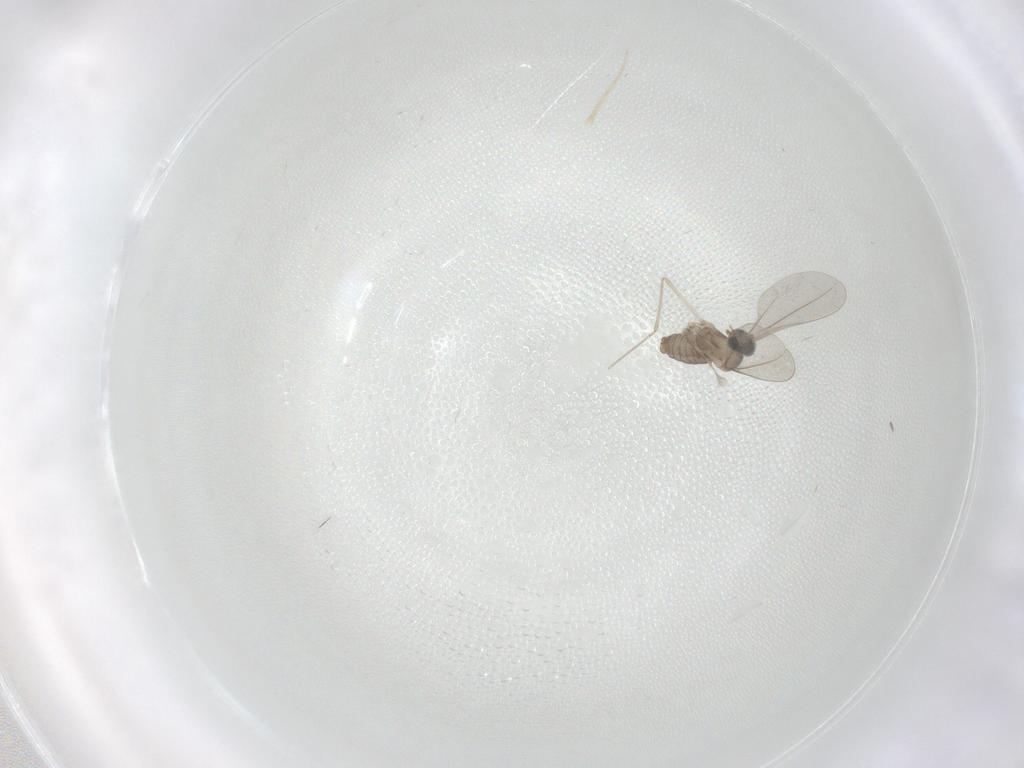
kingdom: Animalia
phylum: Arthropoda
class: Insecta
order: Diptera
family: Cecidomyiidae
